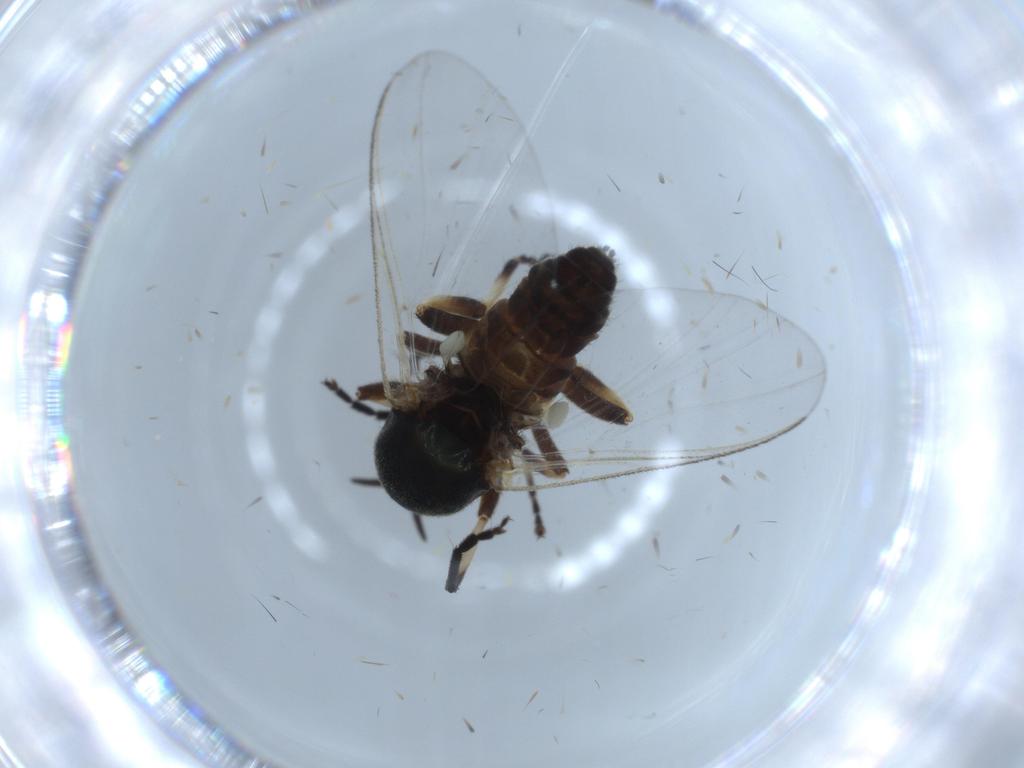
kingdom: Animalia
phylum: Arthropoda
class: Insecta
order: Diptera
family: Simuliidae
